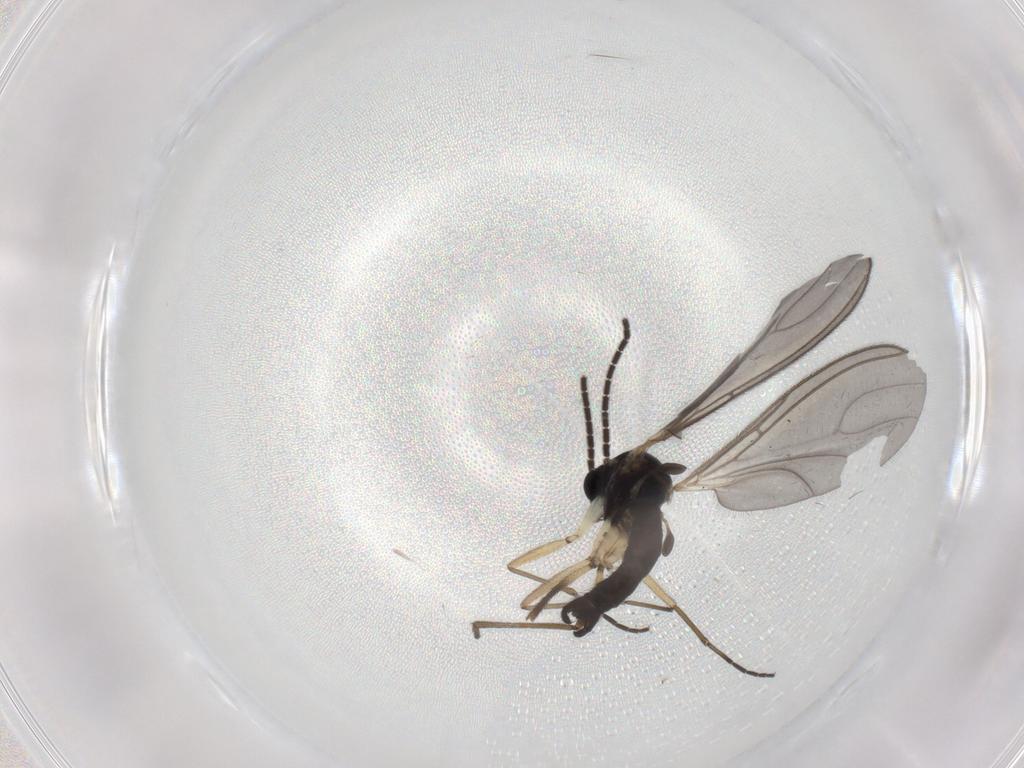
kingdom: Animalia
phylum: Arthropoda
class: Insecta
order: Diptera
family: Sciaridae
